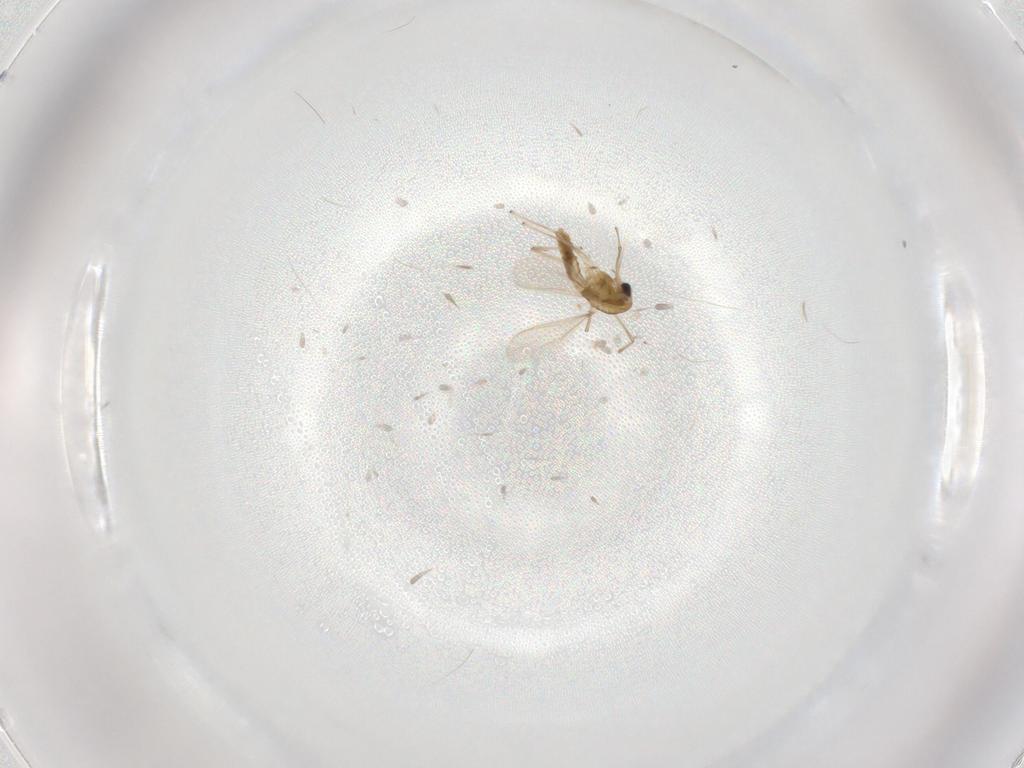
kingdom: Animalia
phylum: Arthropoda
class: Insecta
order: Diptera
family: Chironomidae
